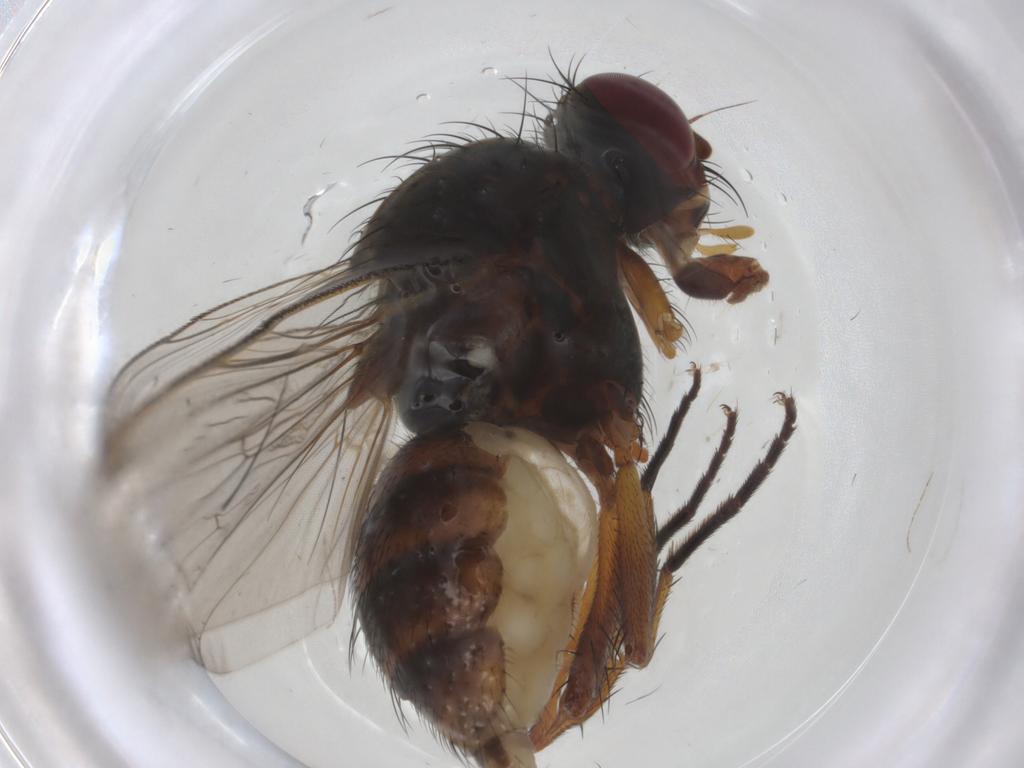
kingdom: Animalia
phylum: Arthropoda
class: Insecta
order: Diptera
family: Anthomyiidae
